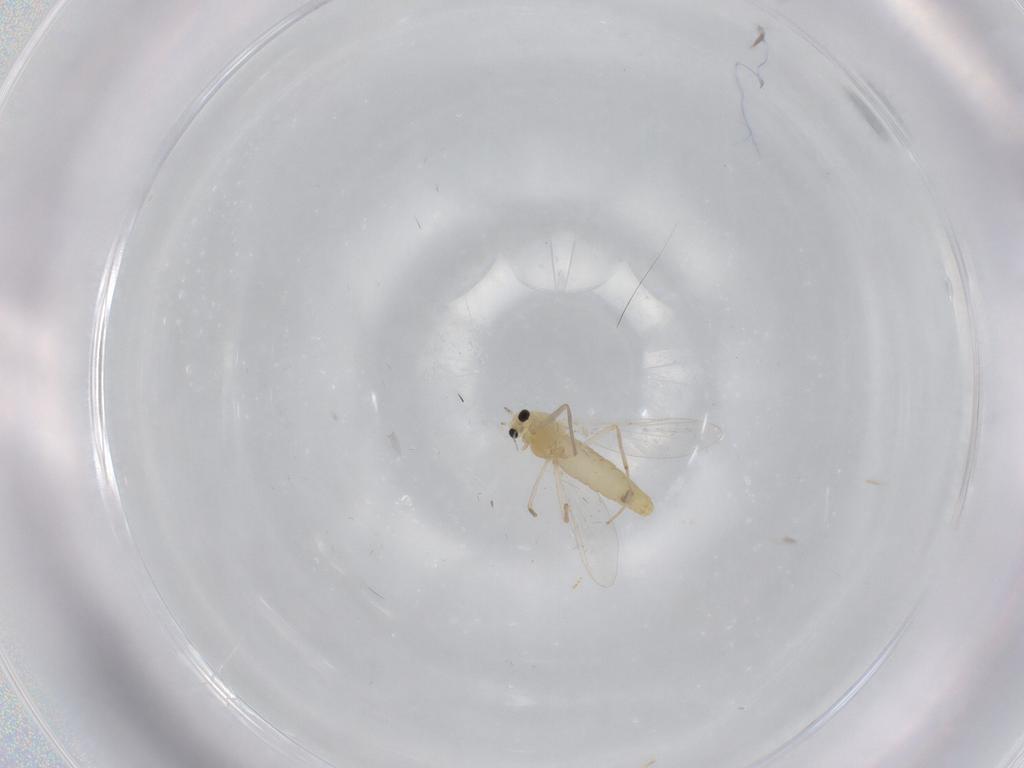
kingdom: Animalia
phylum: Arthropoda
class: Insecta
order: Diptera
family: Chironomidae
